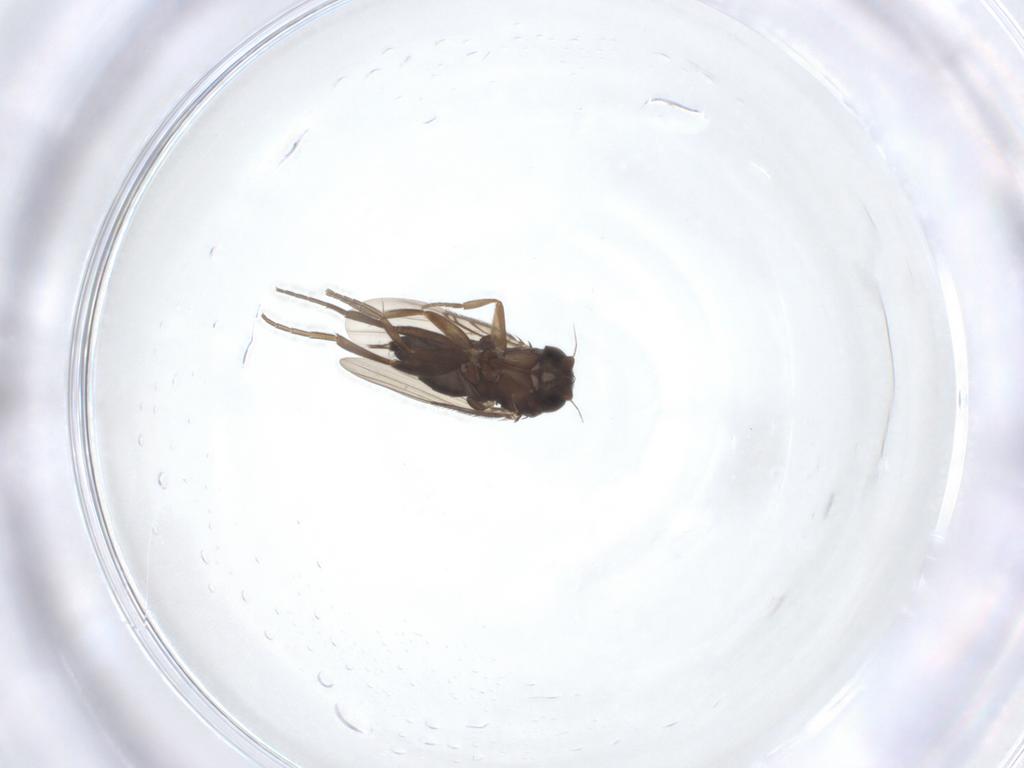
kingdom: Animalia
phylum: Arthropoda
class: Insecta
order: Diptera
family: Phoridae
